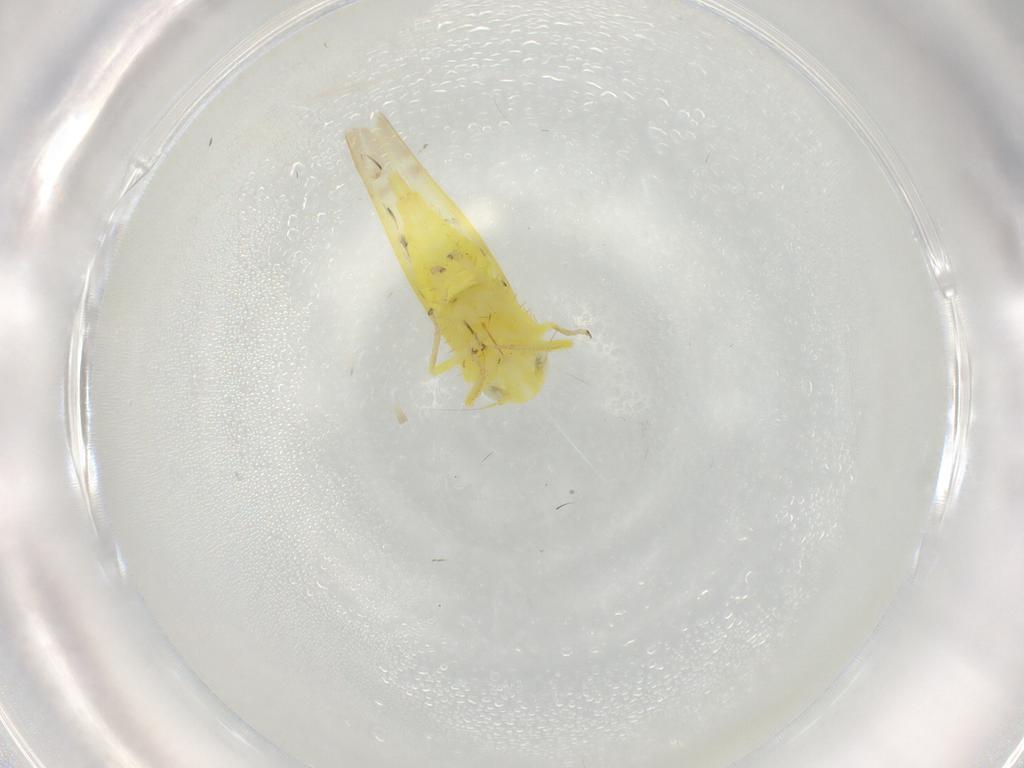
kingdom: Animalia
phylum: Arthropoda
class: Insecta
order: Hemiptera
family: Cicadellidae
